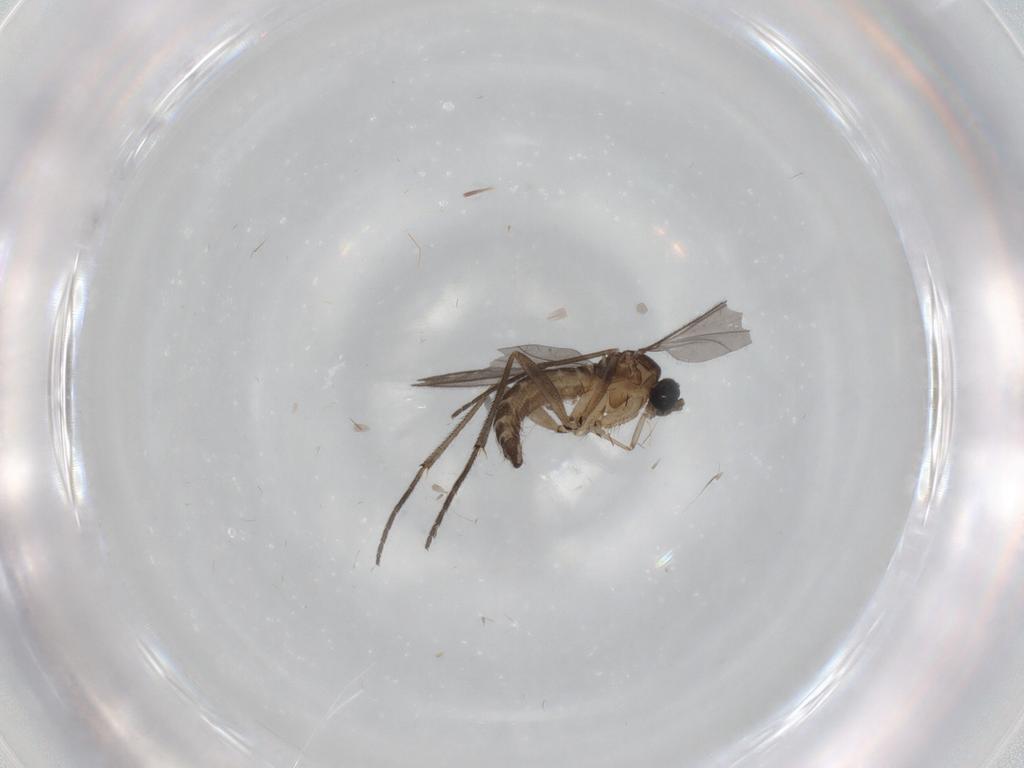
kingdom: Animalia
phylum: Arthropoda
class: Insecta
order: Diptera
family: Sciaridae
